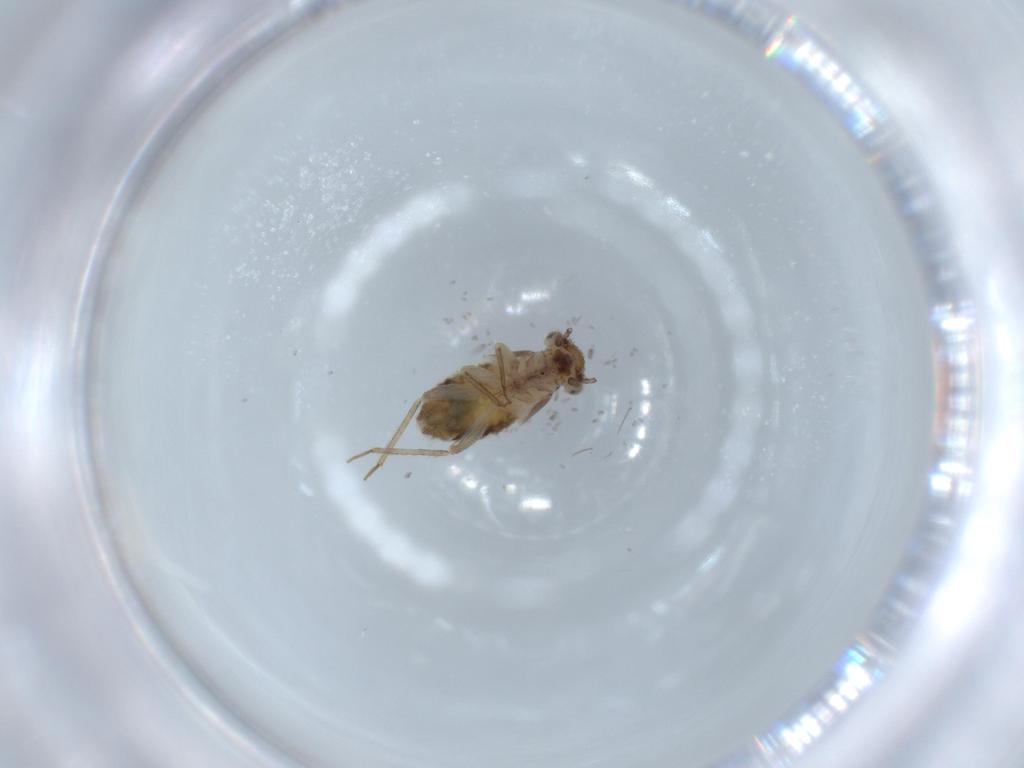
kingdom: Animalia
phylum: Arthropoda
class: Insecta
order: Psocodea
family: Lepidopsocidae
